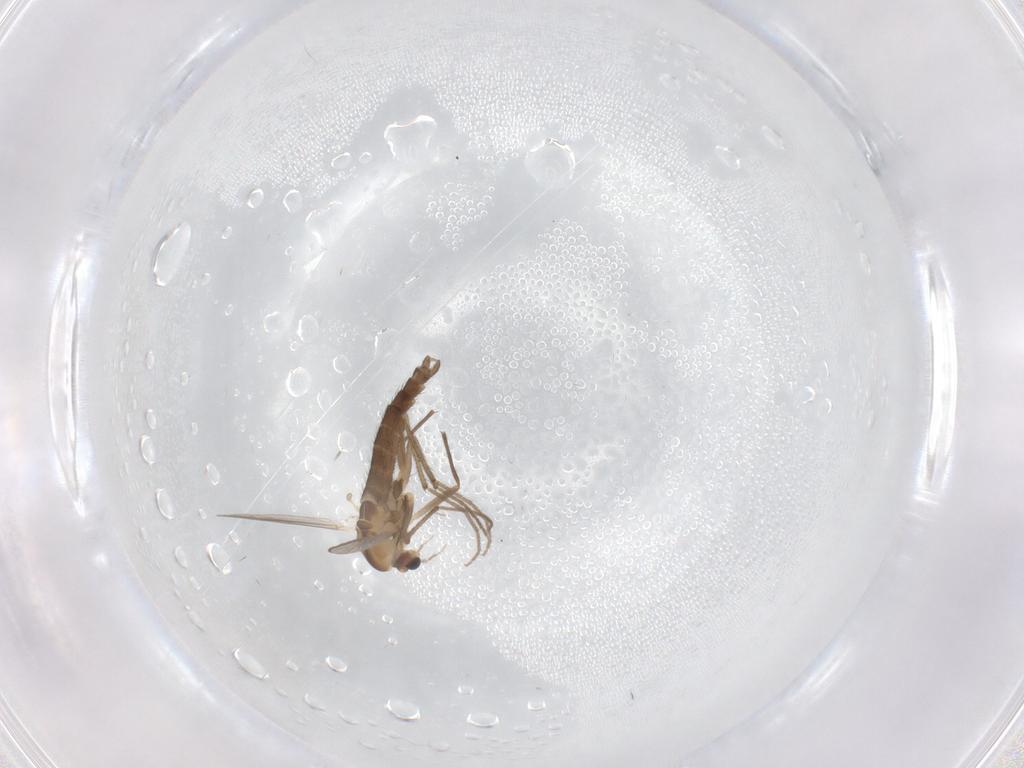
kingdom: Animalia
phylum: Arthropoda
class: Insecta
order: Diptera
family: Chironomidae
